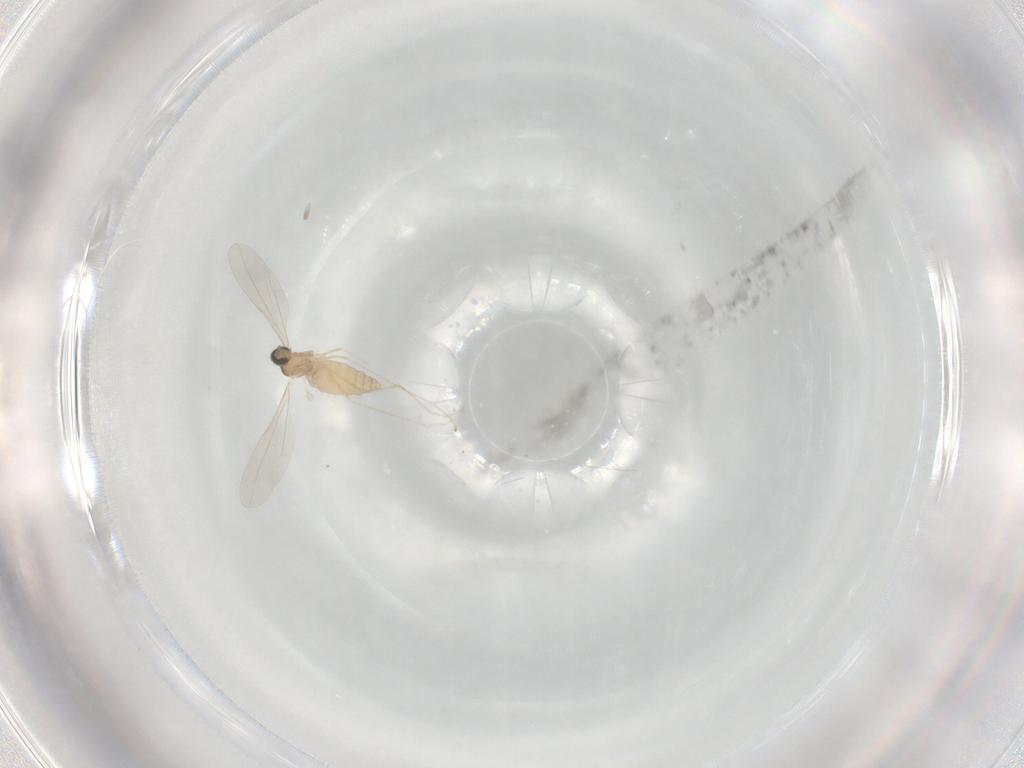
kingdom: Animalia
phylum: Arthropoda
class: Insecta
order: Diptera
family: Cecidomyiidae
